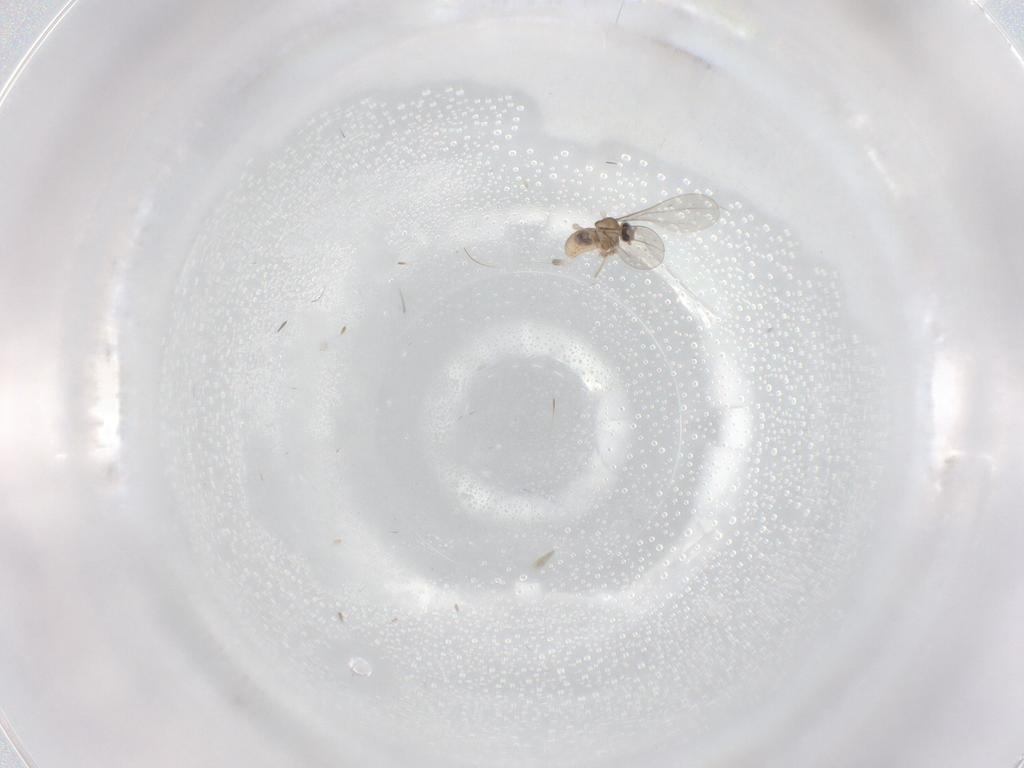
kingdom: Animalia
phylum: Arthropoda
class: Insecta
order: Diptera
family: Cecidomyiidae
